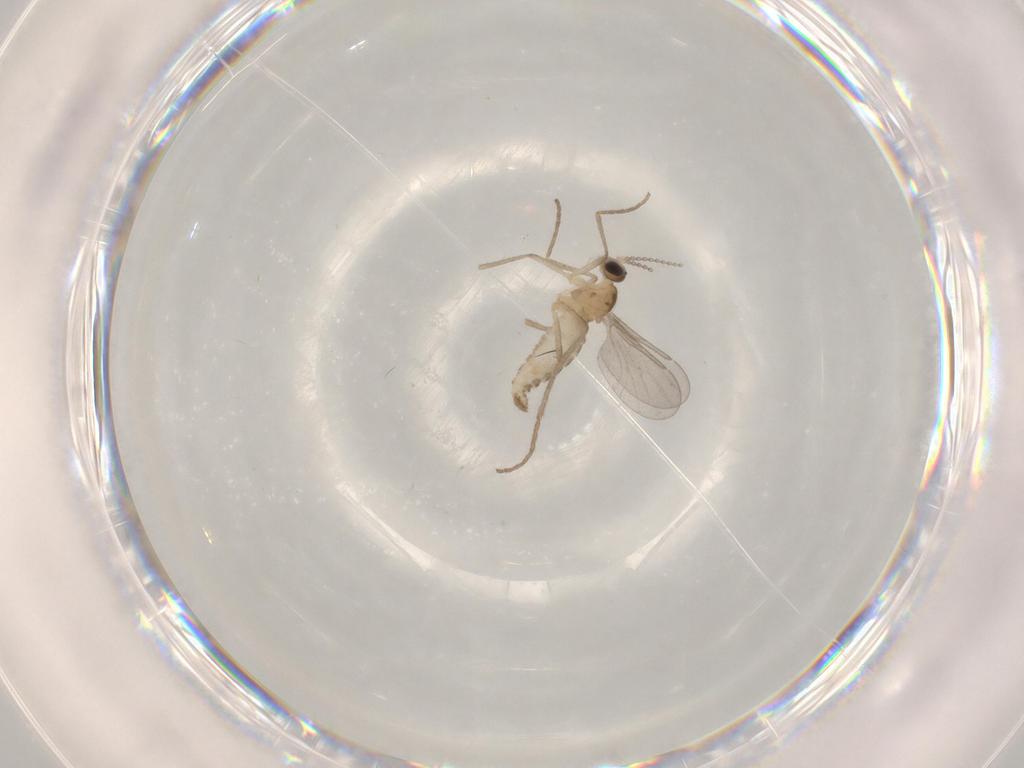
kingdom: Animalia
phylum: Arthropoda
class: Insecta
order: Diptera
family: Cecidomyiidae
